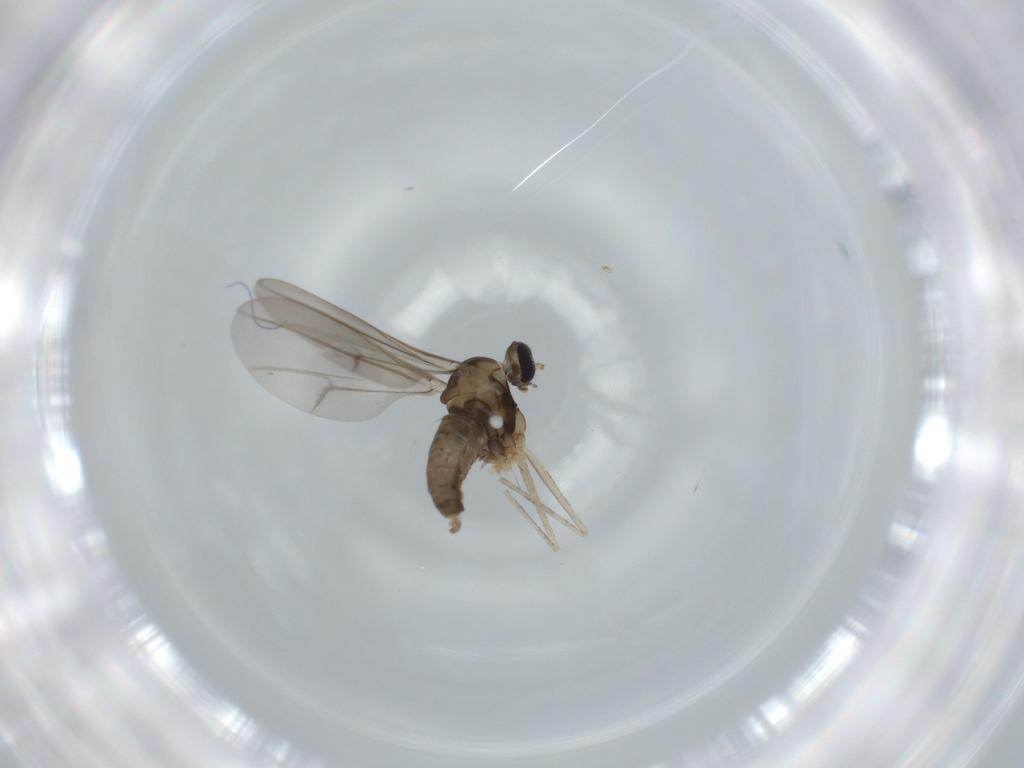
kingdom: Animalia
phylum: Arthropoda
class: Insecta
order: Diptera
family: Cecidomyiidae
